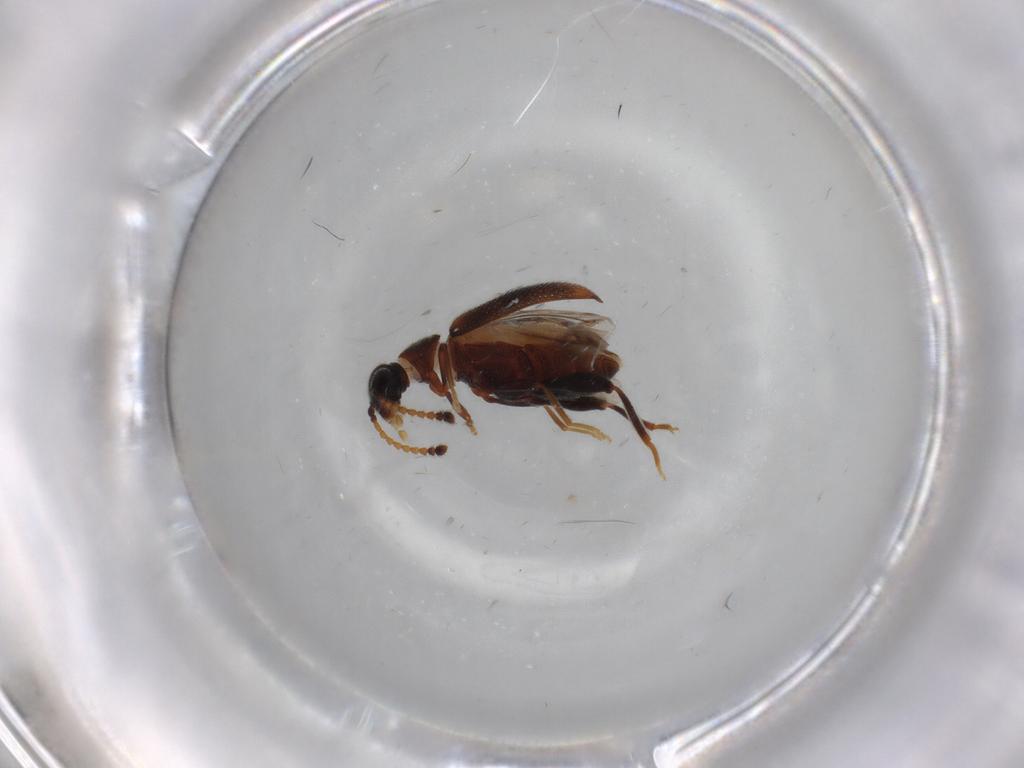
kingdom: Animalia
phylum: Arthropoda
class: Insecta
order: Coleoptera
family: Aderidae
